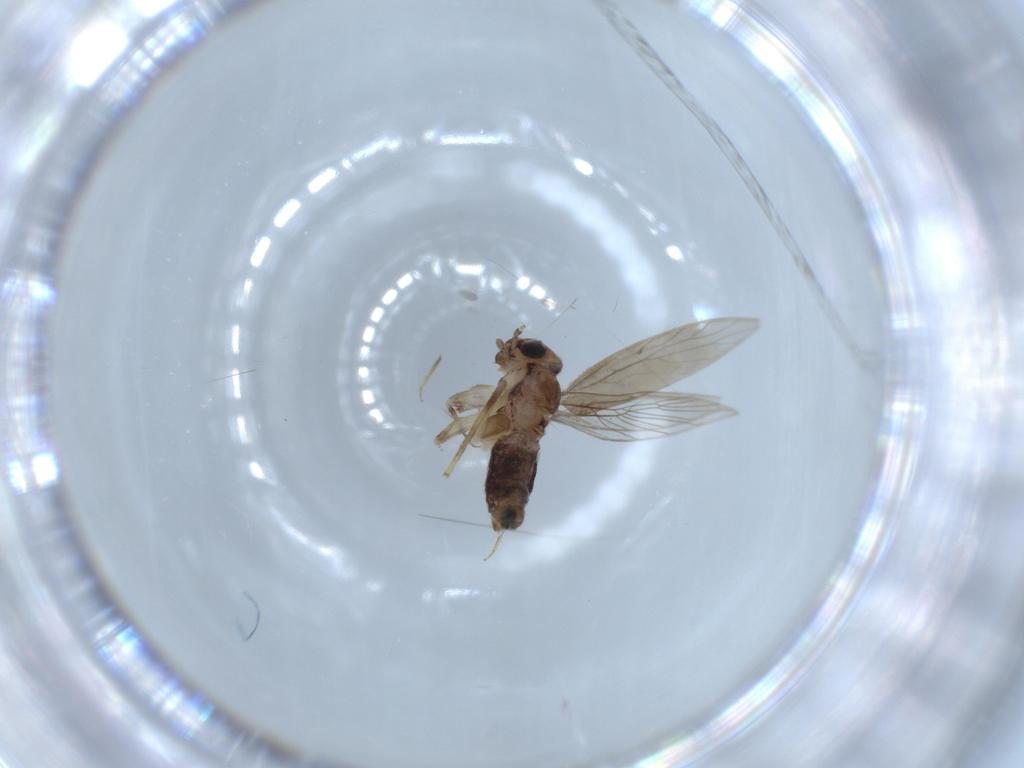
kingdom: Animalia
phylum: Arthropoda
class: Insecta
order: Psocodea
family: Lepidopsocidae
